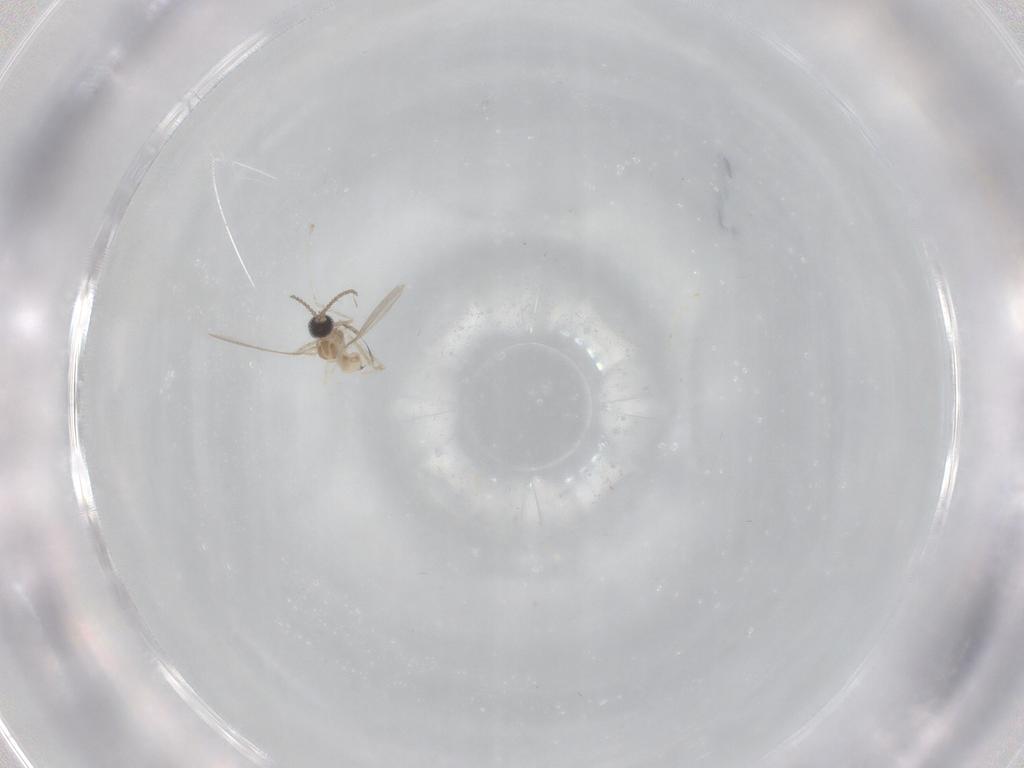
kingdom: Animalia
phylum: Arthropoda
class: Insecta
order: Diptera
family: Cecidomyiidae
